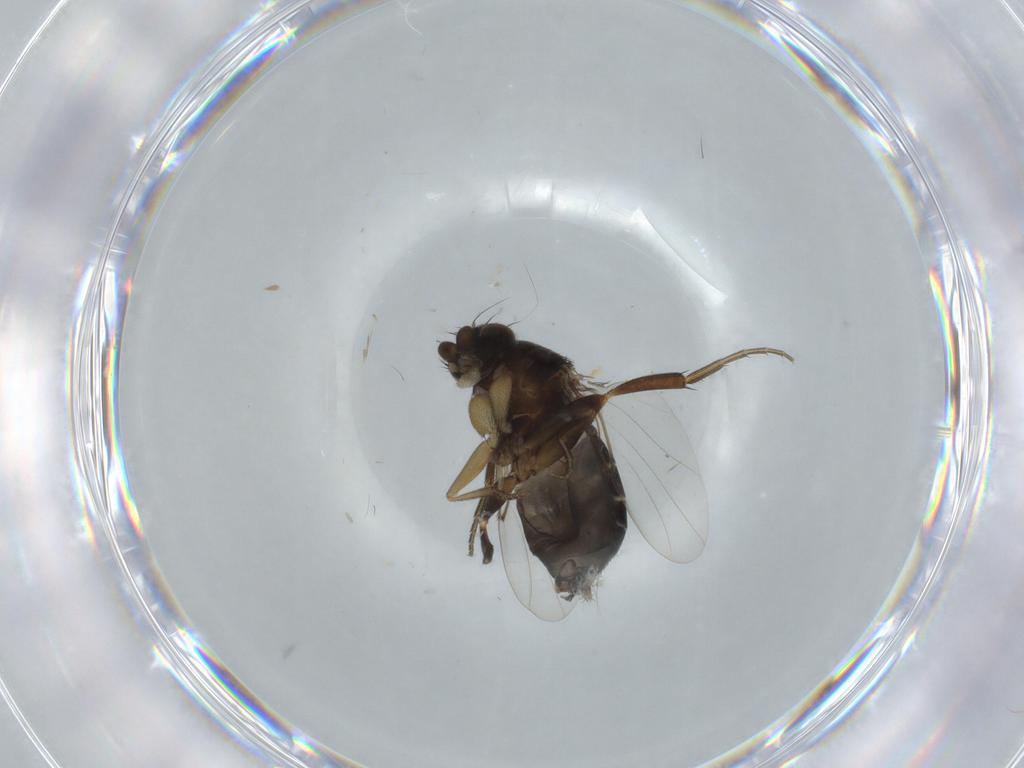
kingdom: Animalia
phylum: Arthropoda
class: Insecta
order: Diptera
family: Phoridae
